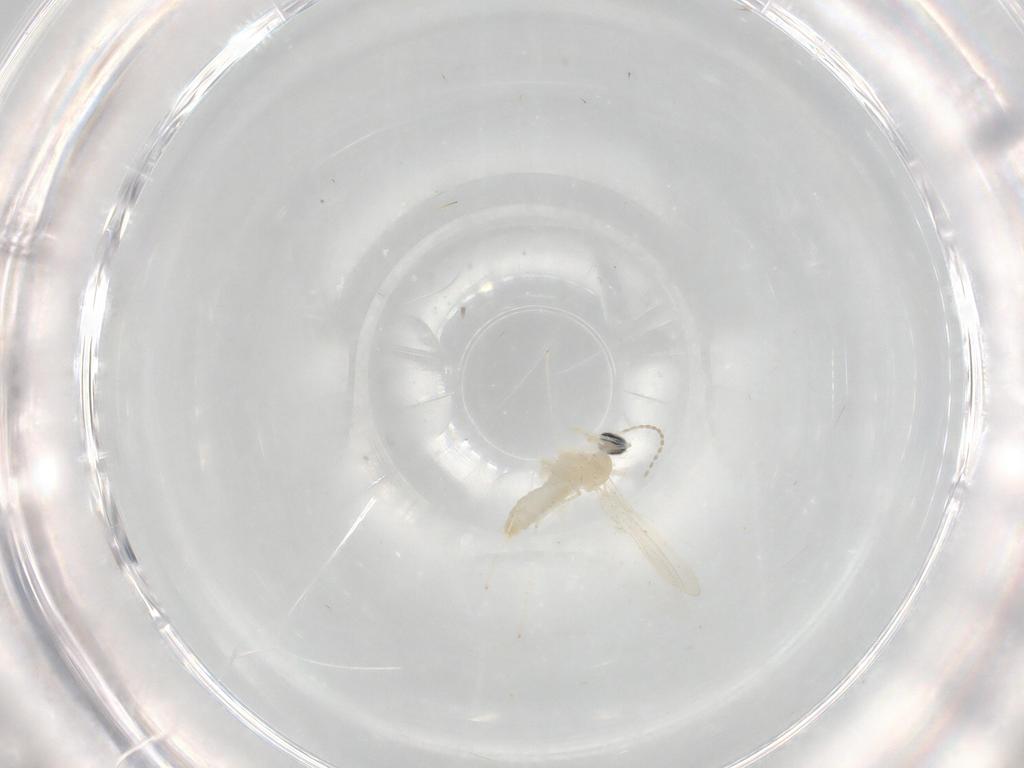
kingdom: Animalia
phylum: Arthropoda
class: Insecta
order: Diptera
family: Cecidomyiidae
